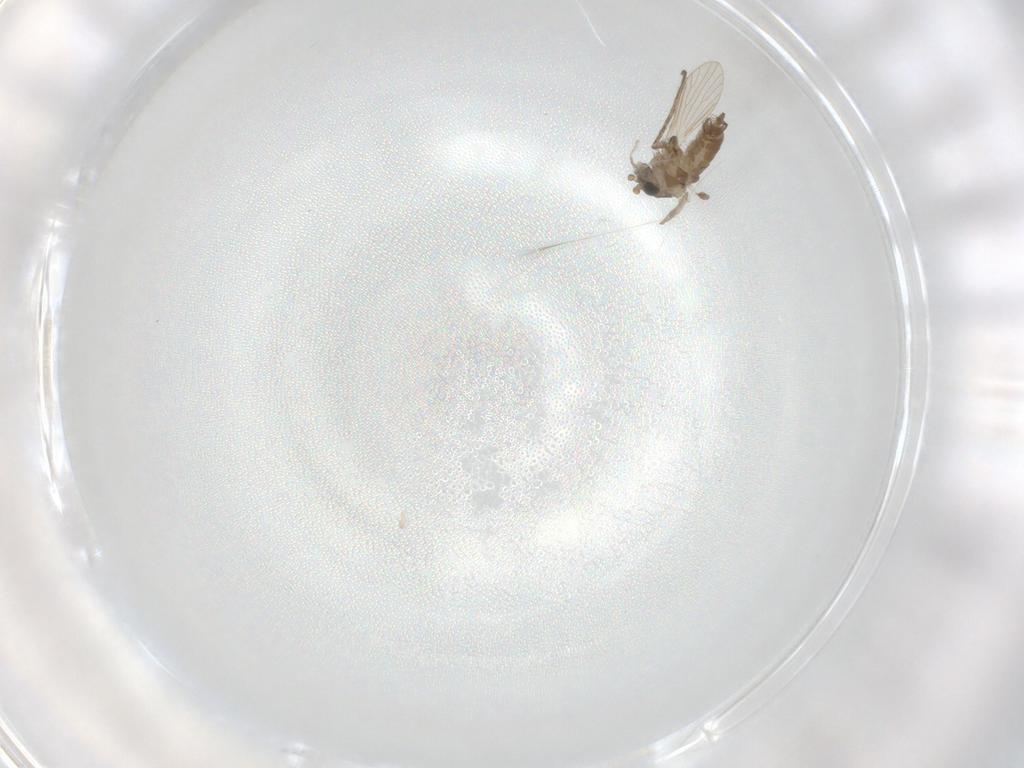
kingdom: Animalia
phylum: Arthropoda
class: Insecta
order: Diptera
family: Psychodidae
